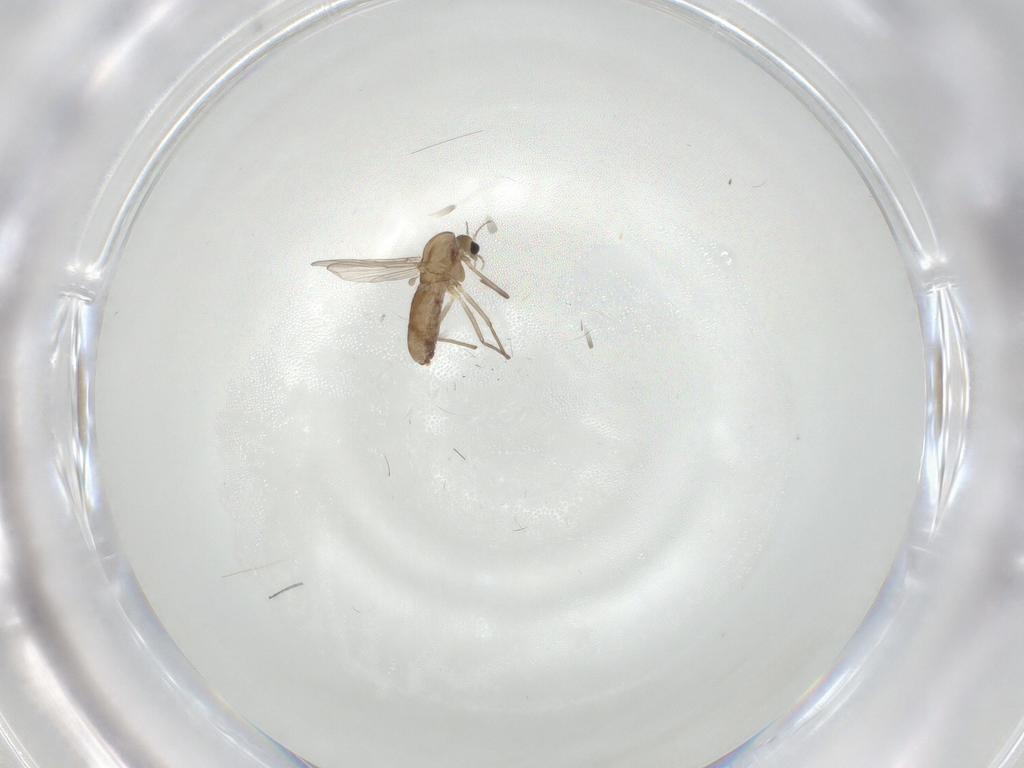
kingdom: Animalia
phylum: Arthropoda
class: Insecta
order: Diptera
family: Chironomidae
